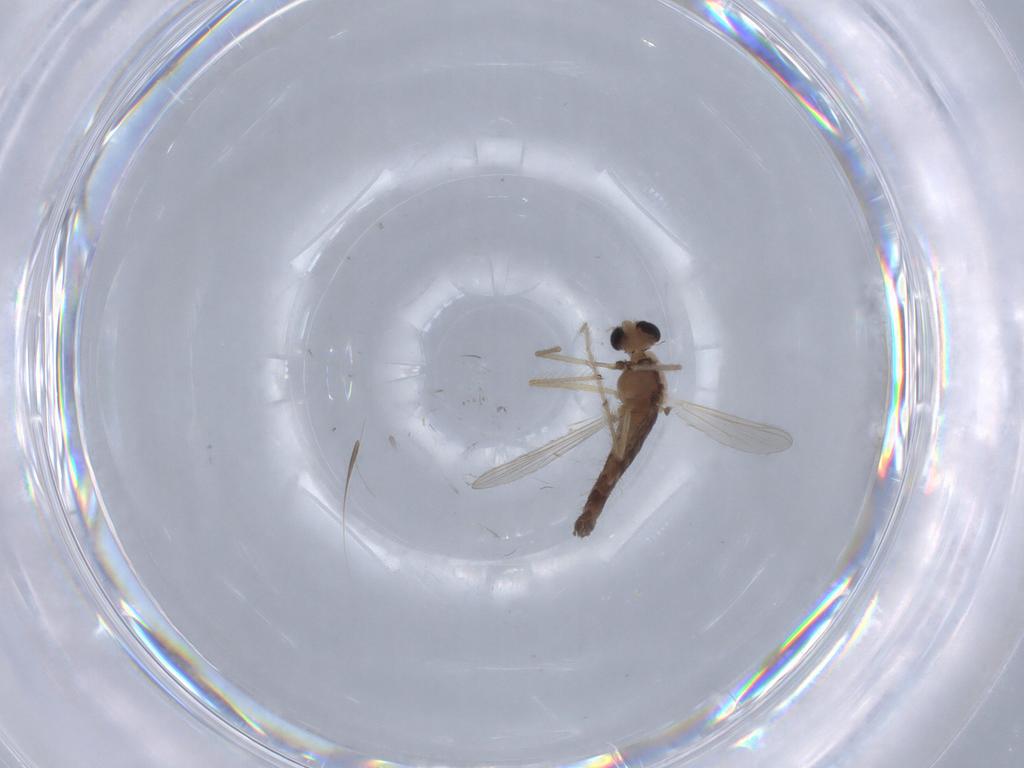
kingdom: Animalia
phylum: Arthropoda
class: Insecta
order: Diptera
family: Chironomidae
